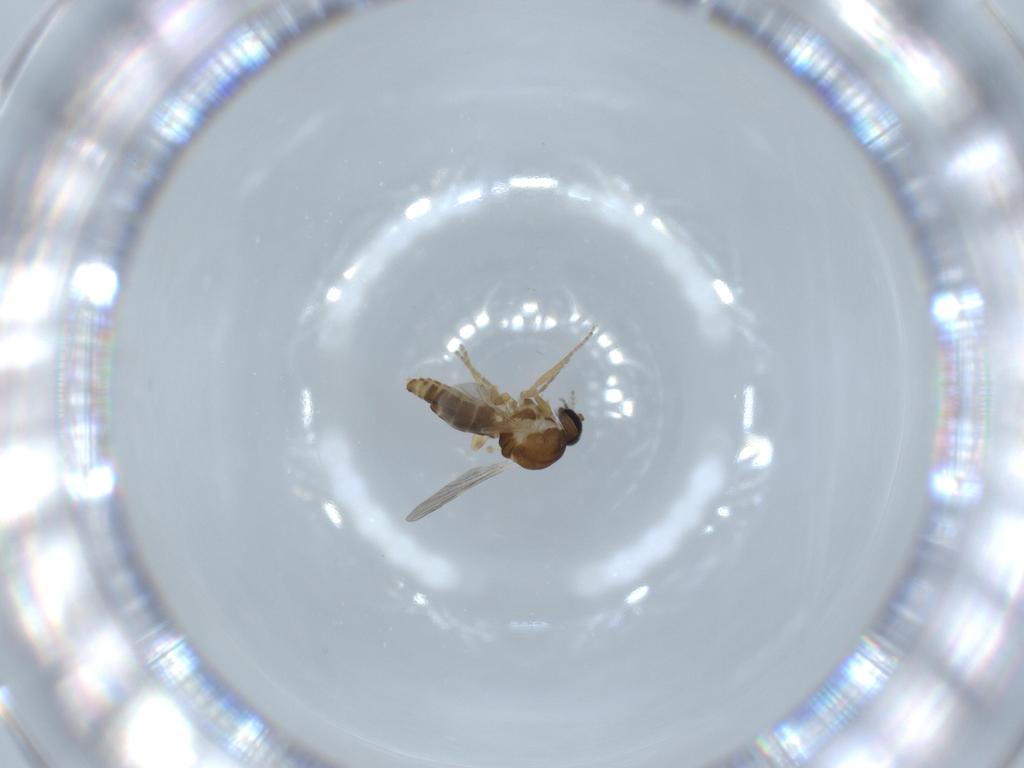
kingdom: Animalia
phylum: Arthropoda
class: Insecta
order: Diptera
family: Ceratopogonidae
